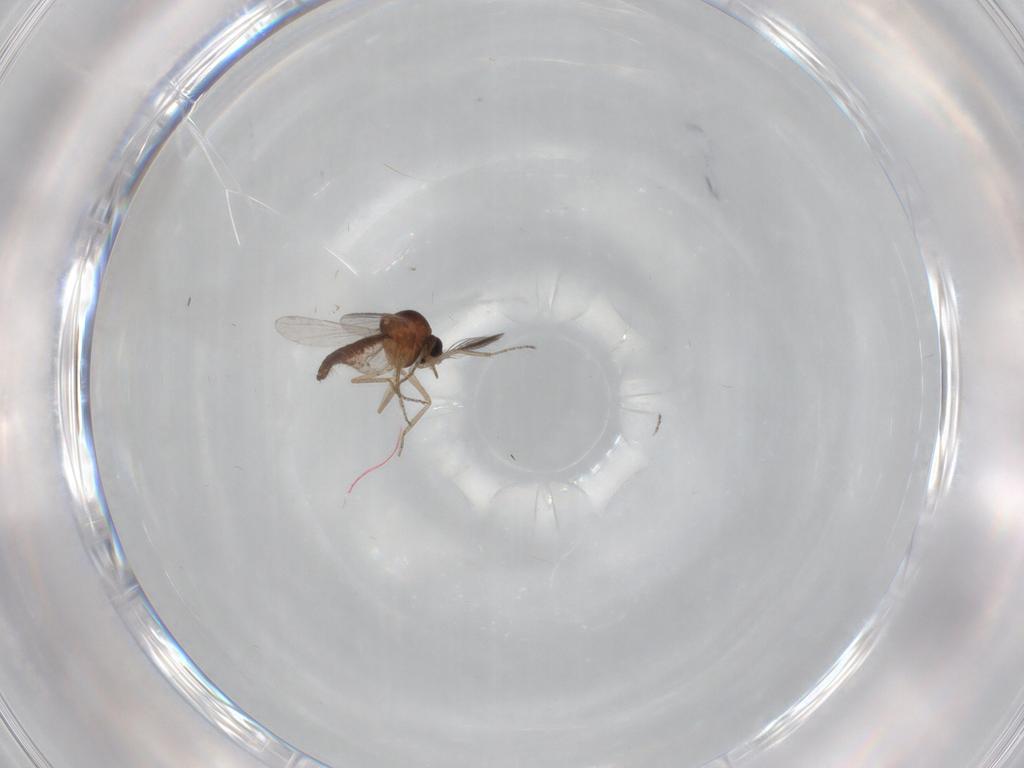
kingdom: Animalia
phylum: Arthropoda
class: Insecta
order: Diptera
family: Ceratopogonidae
